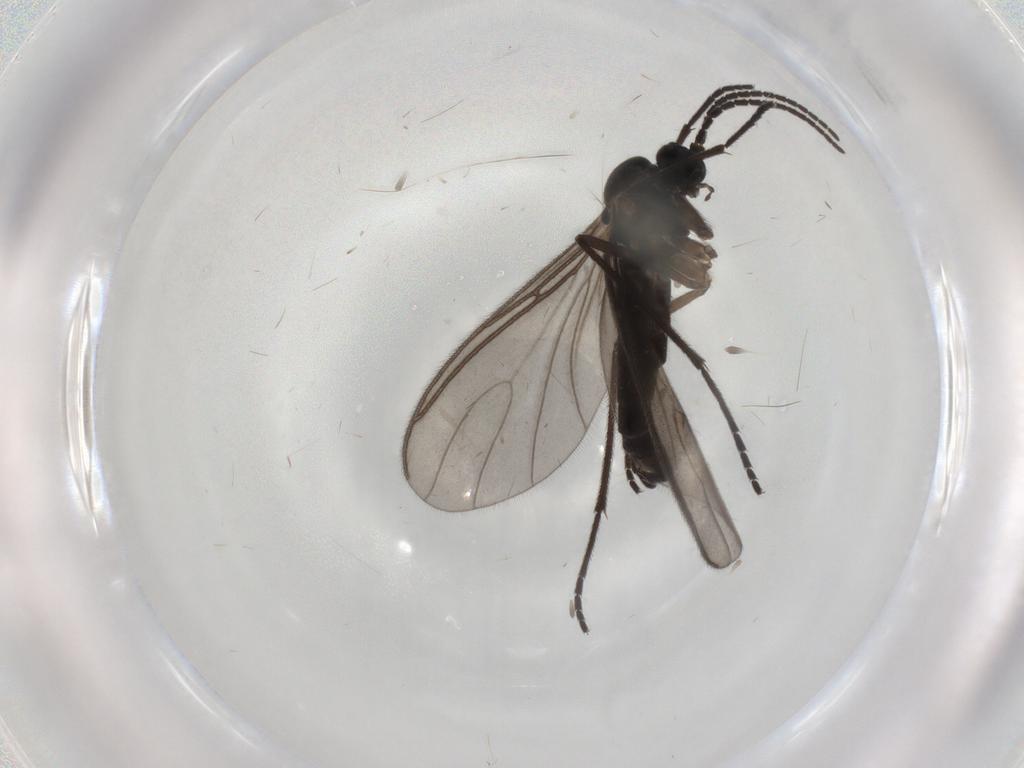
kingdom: Animalia
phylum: Arthropoda
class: Insecta
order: Diptera
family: Mycetophilidae
